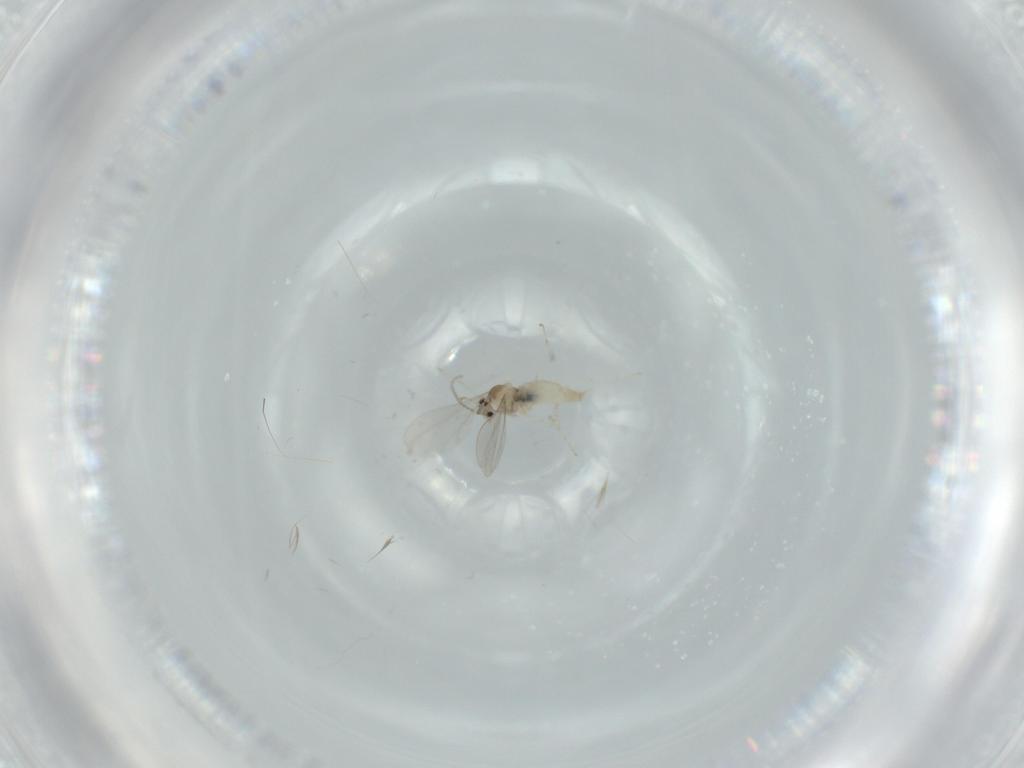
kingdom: Animalia
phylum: Arthropoda
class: Insecta
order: Diptera
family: Cecidomyiidae
